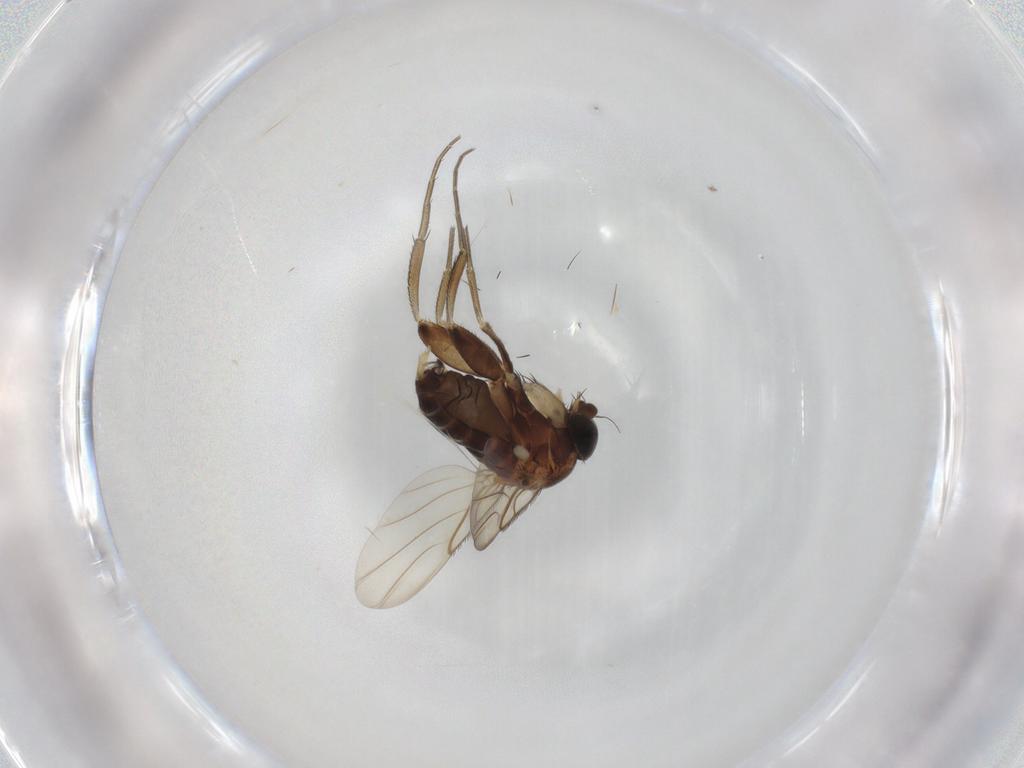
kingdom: Animalia
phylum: Arthropoda
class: Insecta
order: Diptera
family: Phoridae
